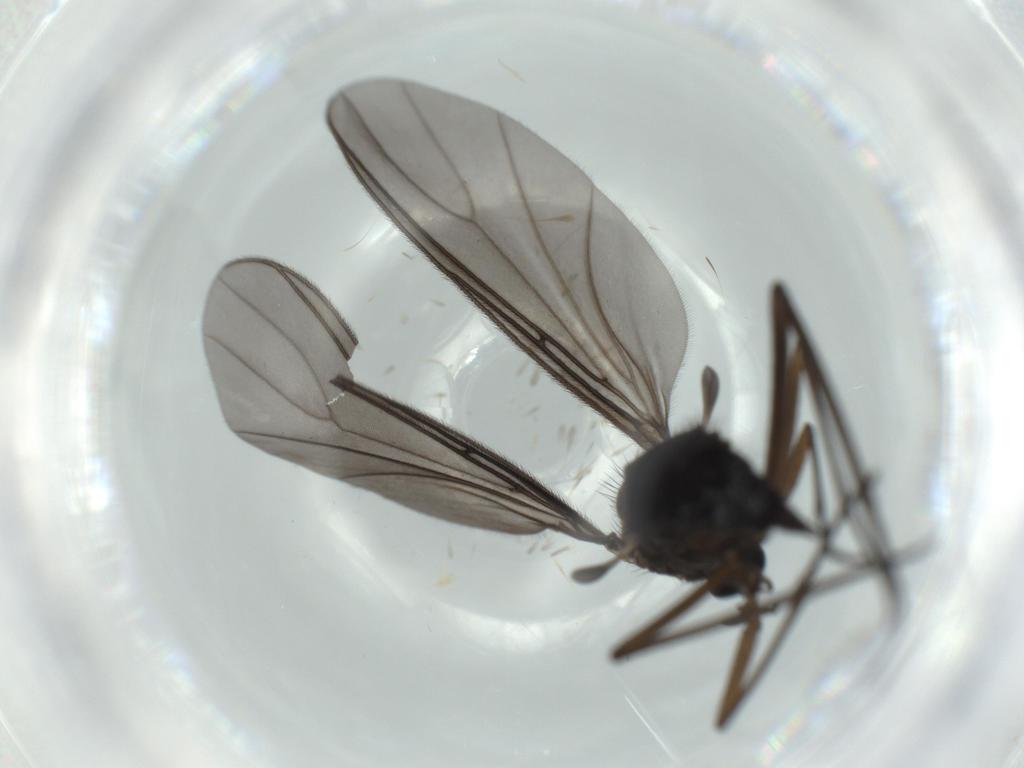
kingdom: Animalia
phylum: Arthropoda
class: Insecta
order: Diptera
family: Sciaridae
